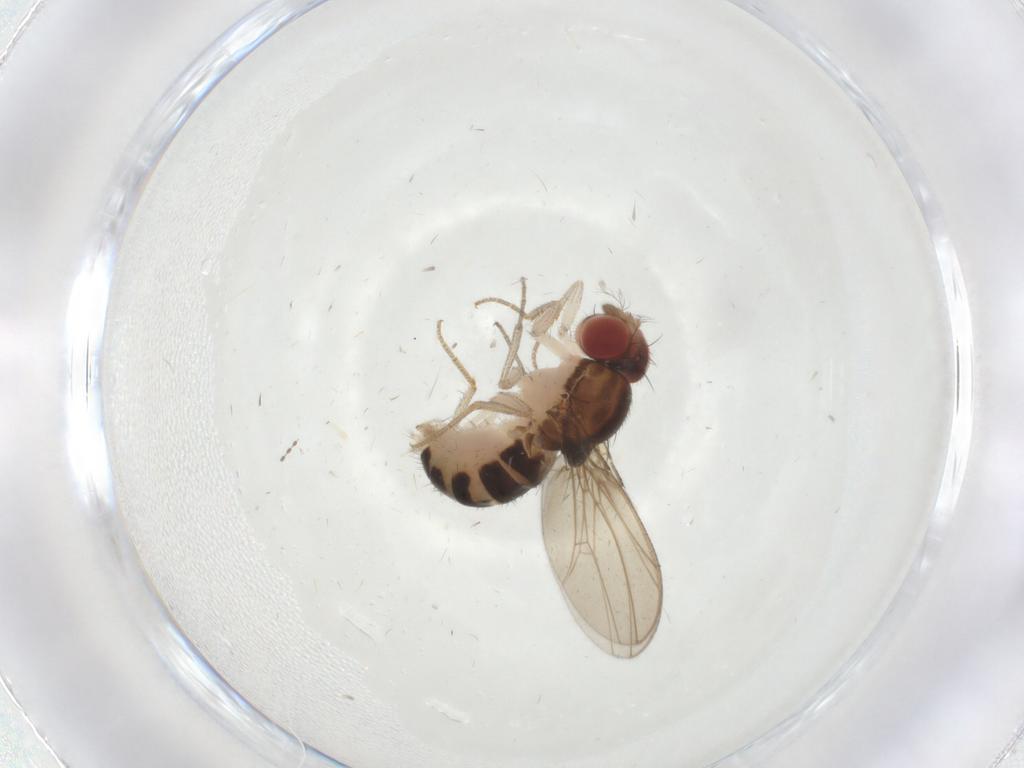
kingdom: Animalia
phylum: Arthropoda
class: Insecta
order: Diptera
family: Drosophilidae
